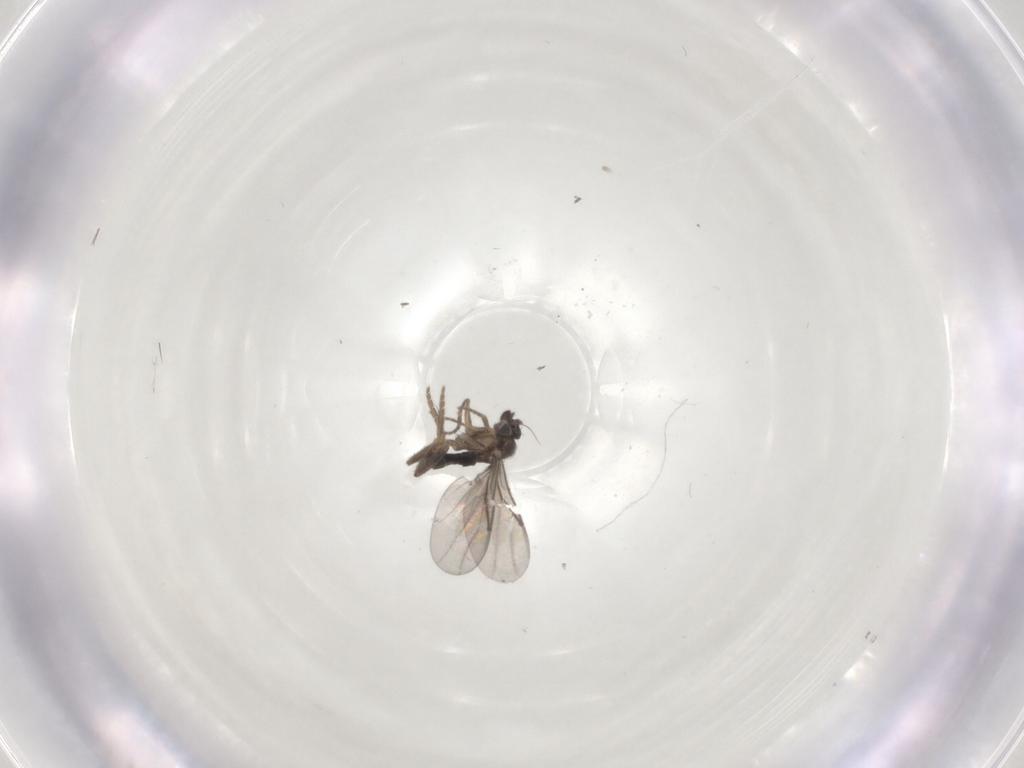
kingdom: Animalia
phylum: Arthropoda
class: Insecta
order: Diptera
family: Phoridae
